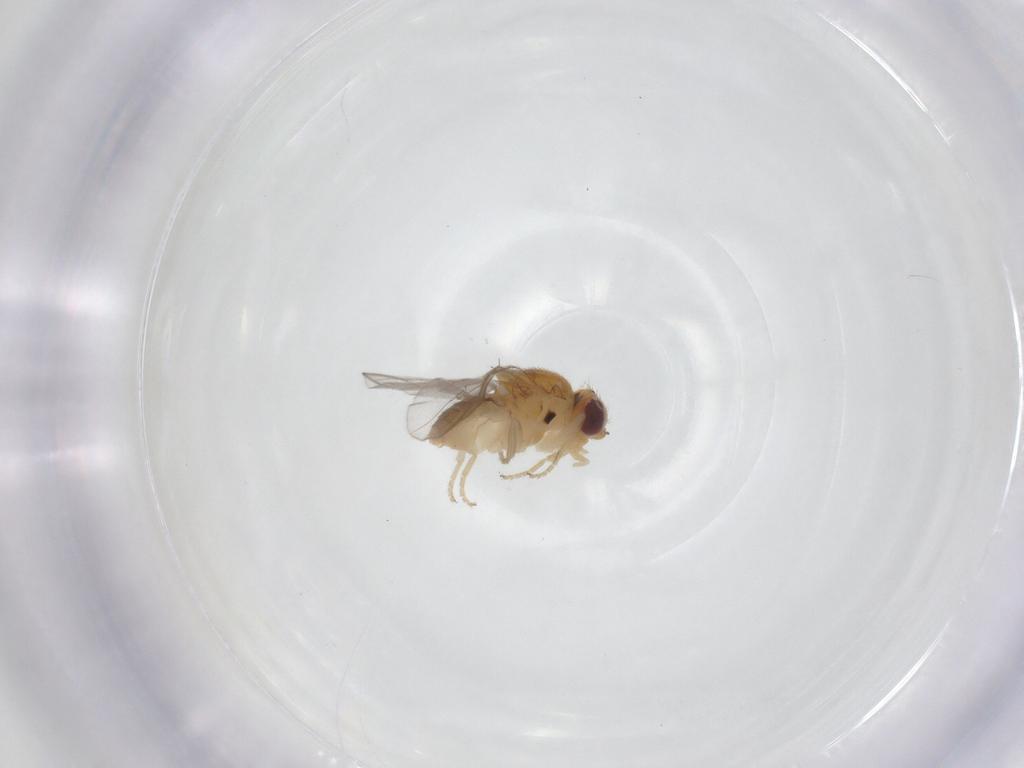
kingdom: Animalia
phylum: Arthropoda
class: Insecta
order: Diptera
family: Chloropidae
